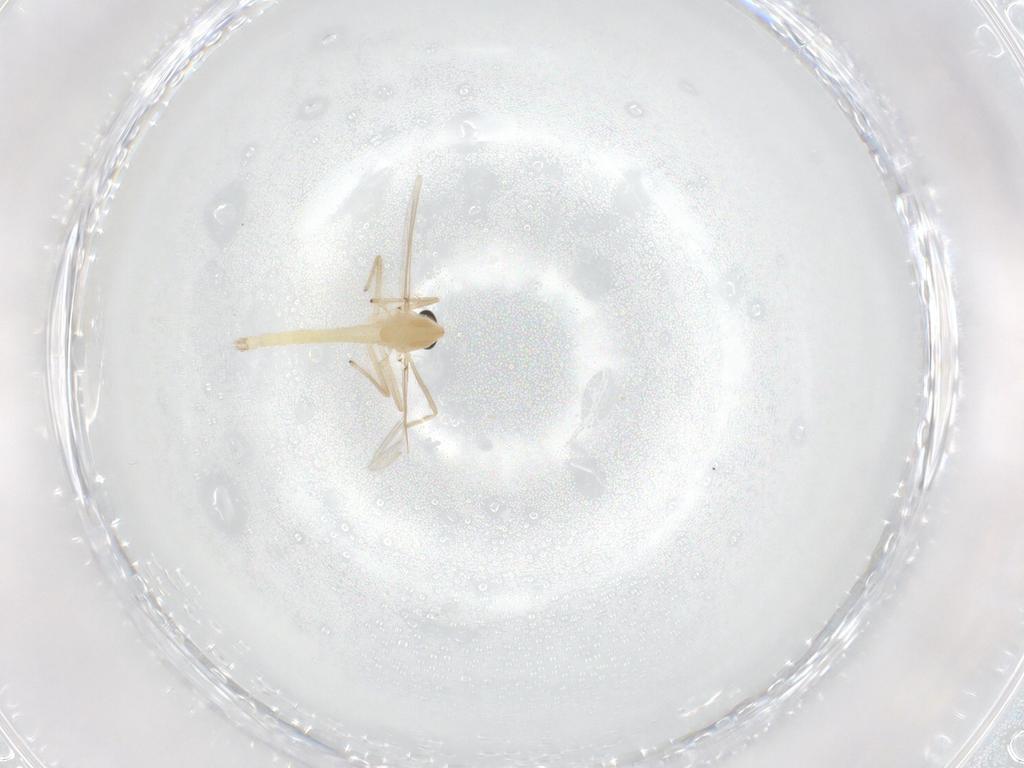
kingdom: Animalia
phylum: Arthropoda
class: Insecta
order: Diptera
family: Chironomidae
